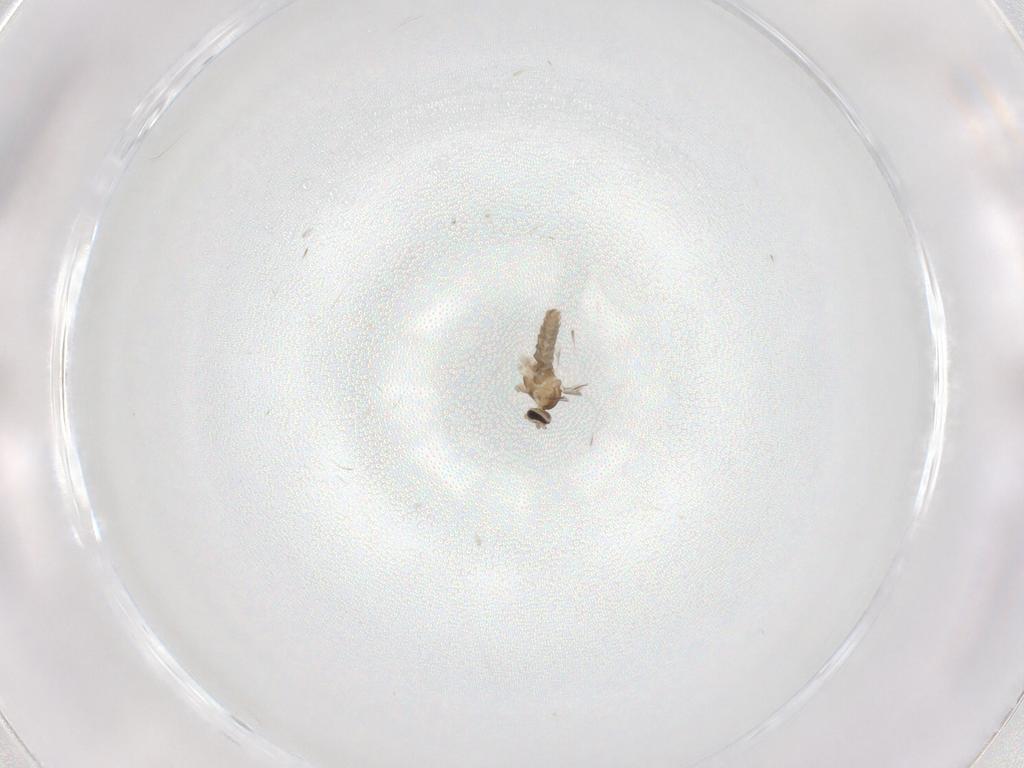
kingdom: Animalia
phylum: Arthropoda
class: Insecta
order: Diptera
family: Cecidomyiidae
